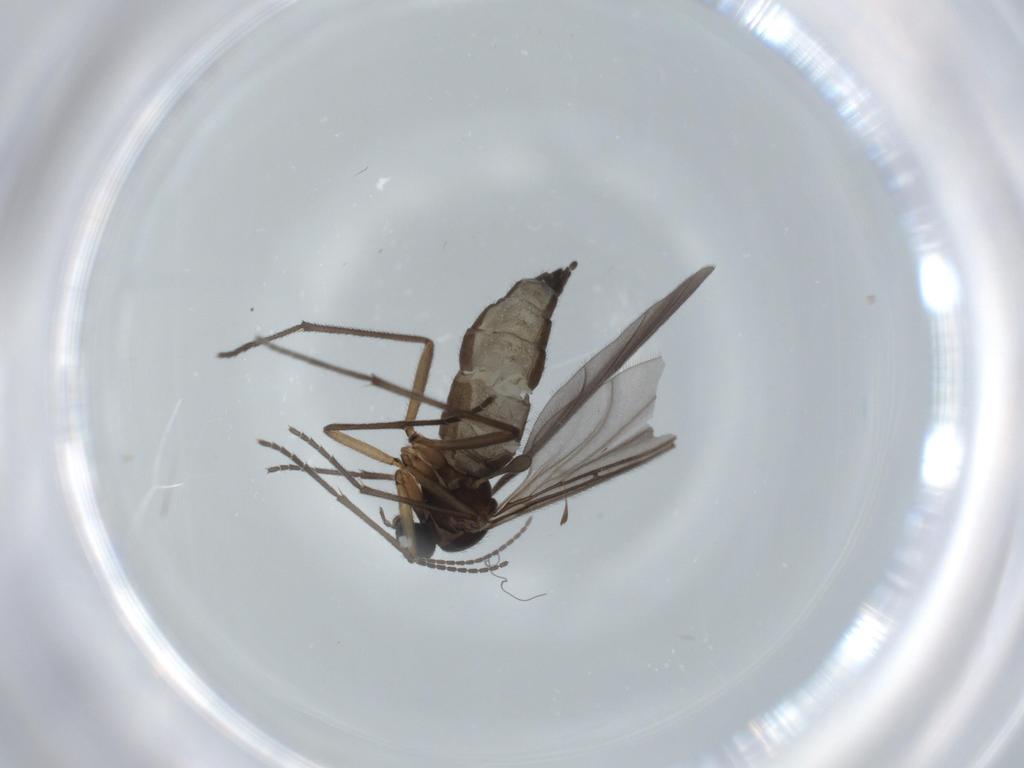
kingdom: Animalia
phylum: Arthropoda
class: Insecta
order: Diptera
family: Sciaridae
